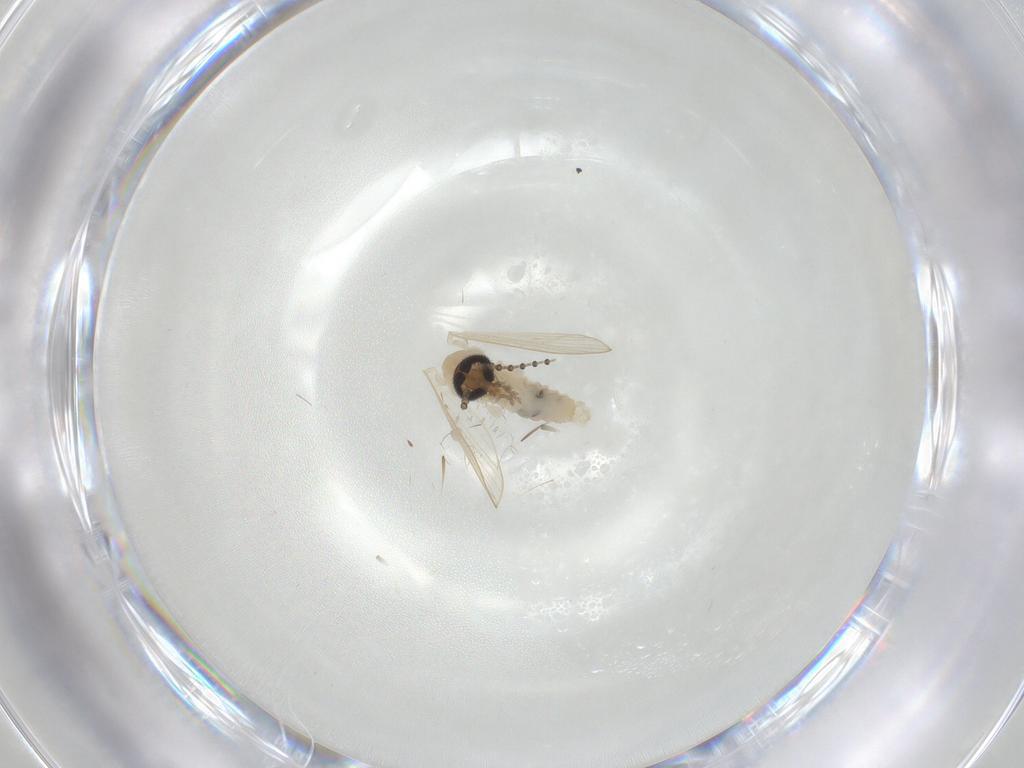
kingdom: Animalia
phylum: Arthropoda
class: Insecta
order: Diptera
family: Psychodidae
